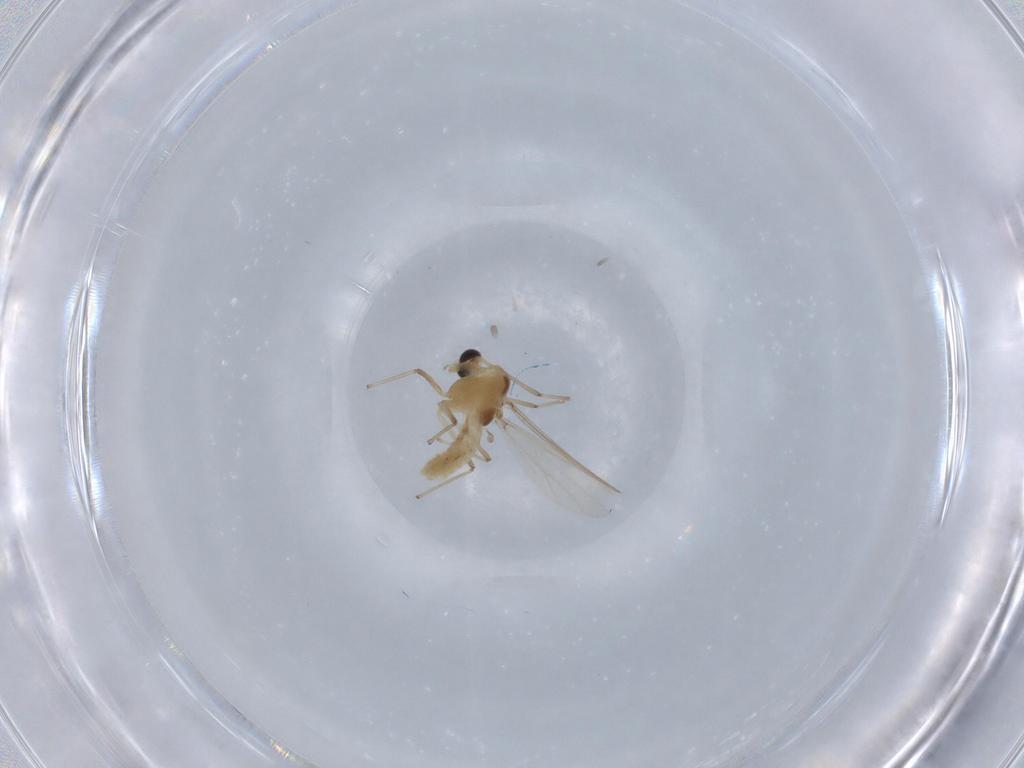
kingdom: Animalia
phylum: Arthropoda
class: Insecta
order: Diptera
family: Chironomidae
